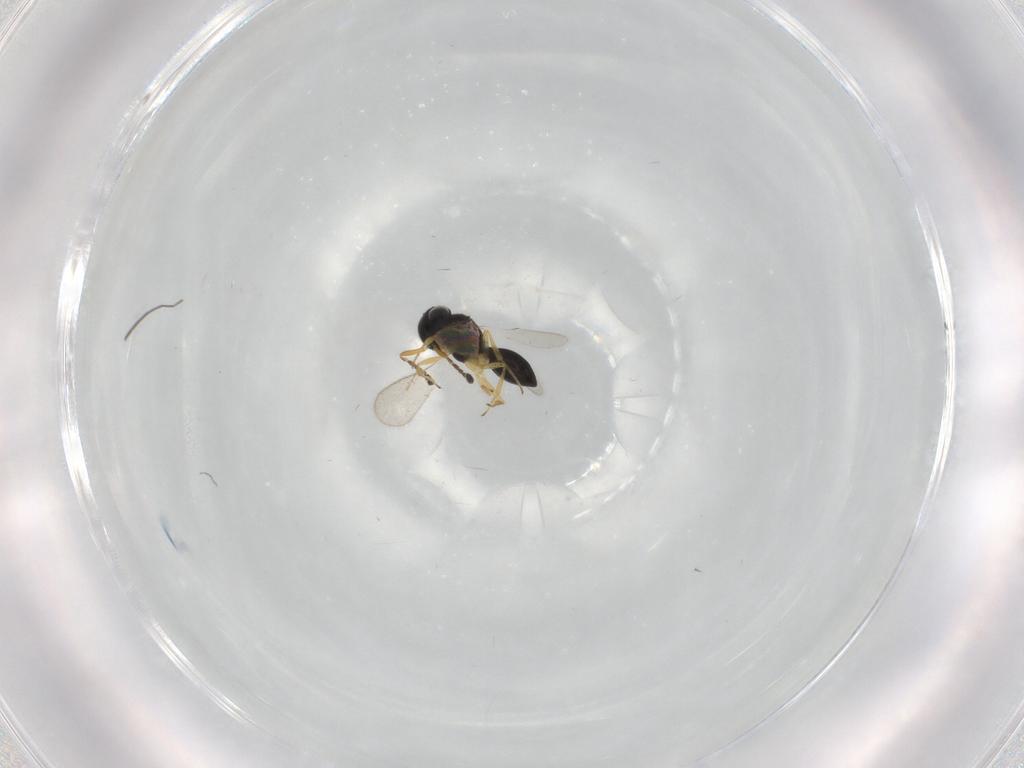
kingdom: Animalia
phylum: Arthropoda
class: Insecta
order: Hymenoptera
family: Scelionidae
